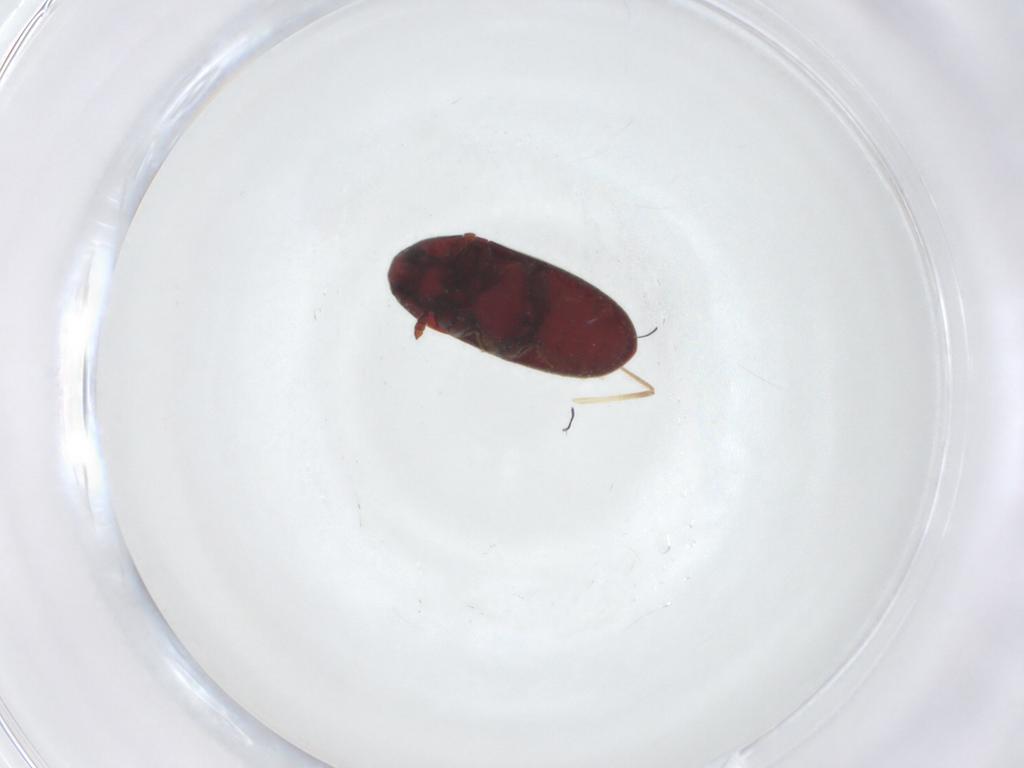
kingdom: Animalia
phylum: Arthropoda
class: Insecta
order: Coleoptera
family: Throscidae
